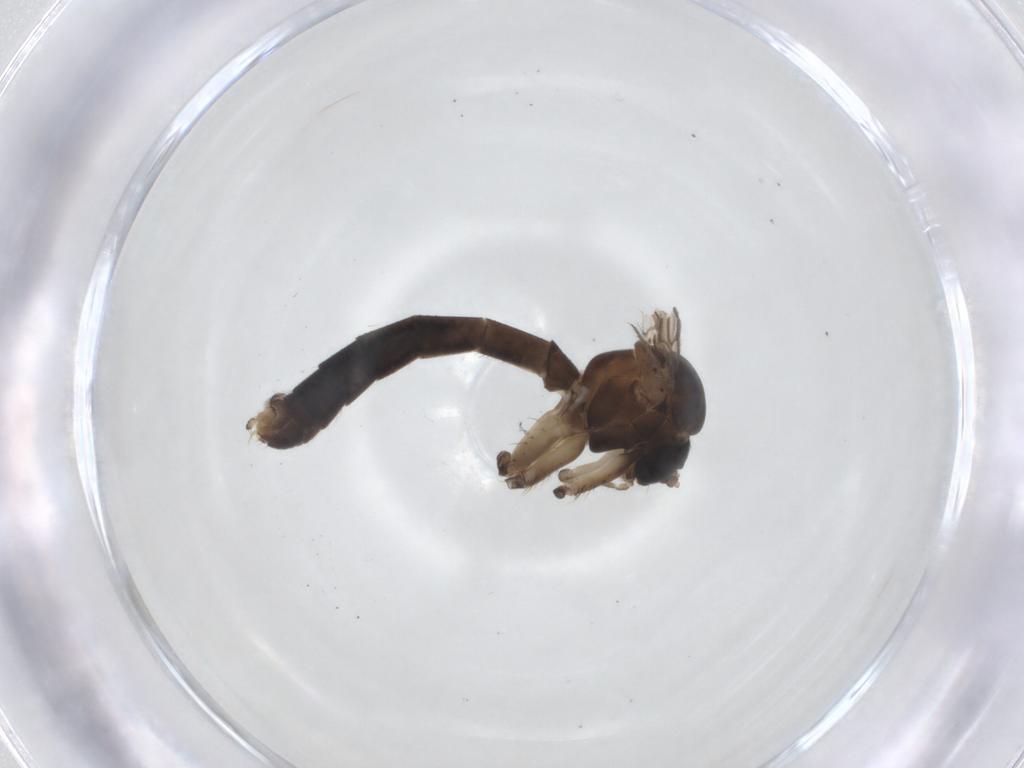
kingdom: Animalia
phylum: Arthropoda
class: Insecta
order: Diptera
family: Mycetophilidae
